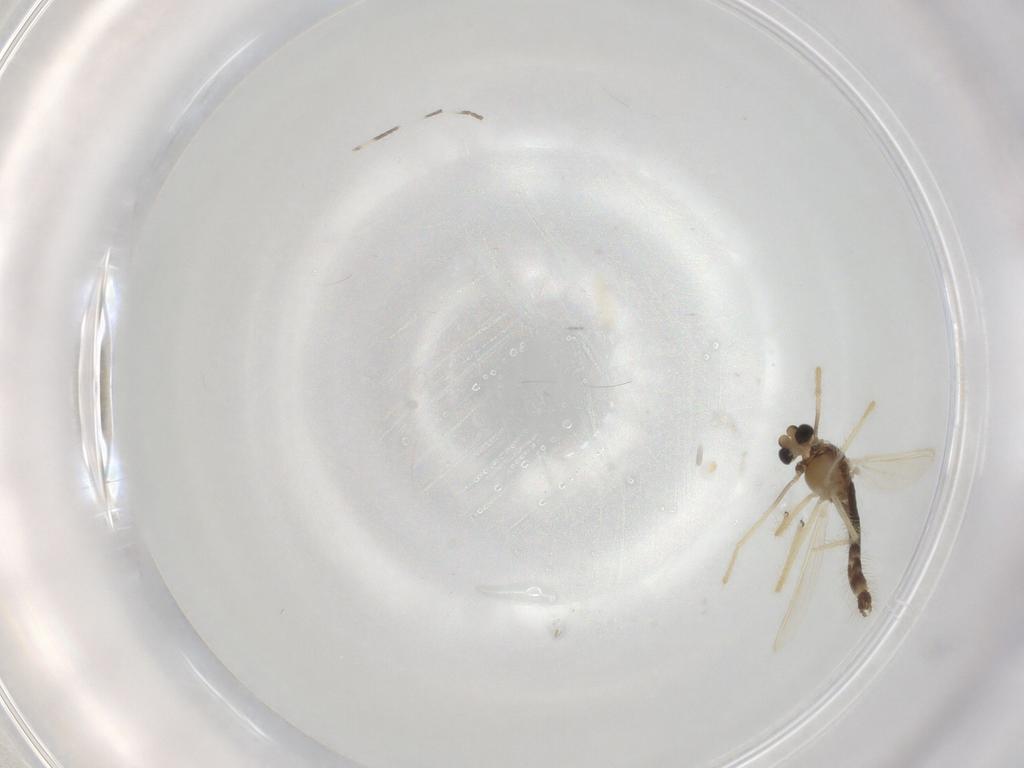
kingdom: Animalia
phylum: Arthropoda
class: Insecta
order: Diptera
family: Chironomidae
